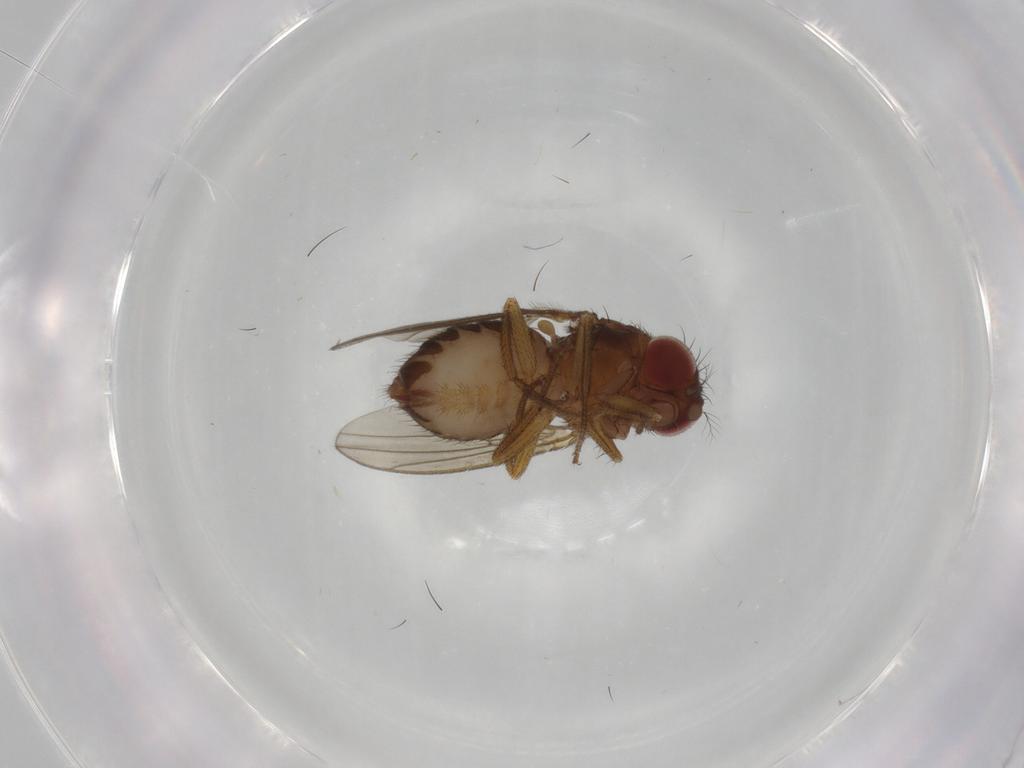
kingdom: Animalia
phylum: Arthropoda
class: Insecta
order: Diptera
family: Drosophilidae
